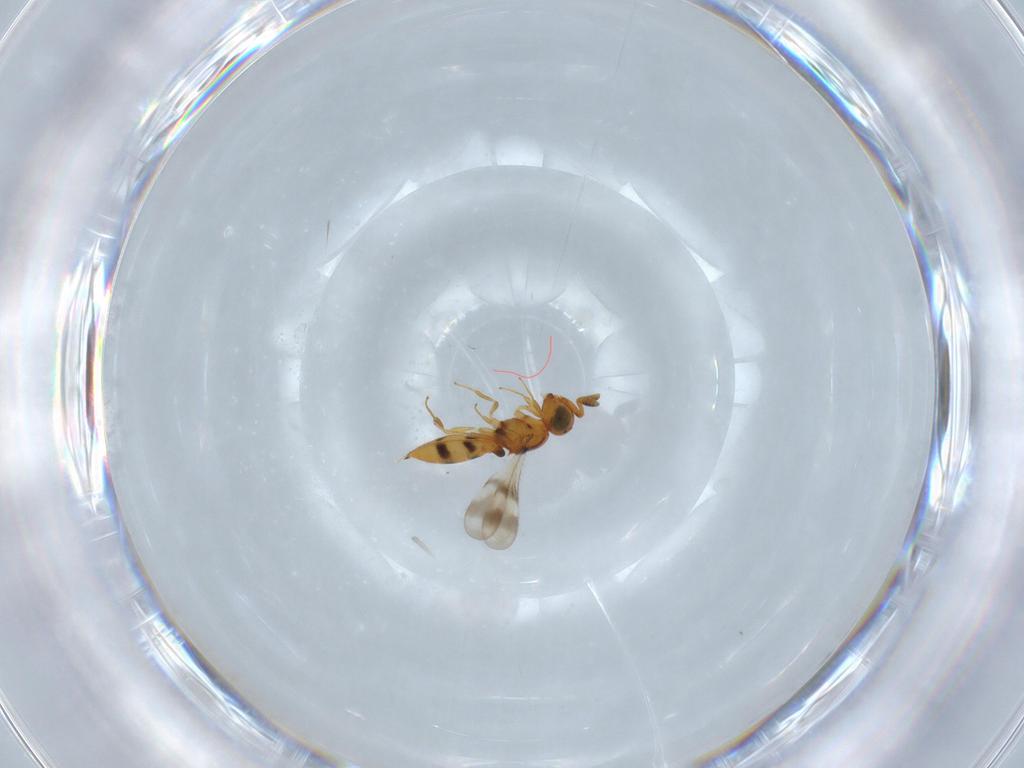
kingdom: Animalia
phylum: Arthropoda
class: Insecta
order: Hymenoptera
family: Scelionidae
